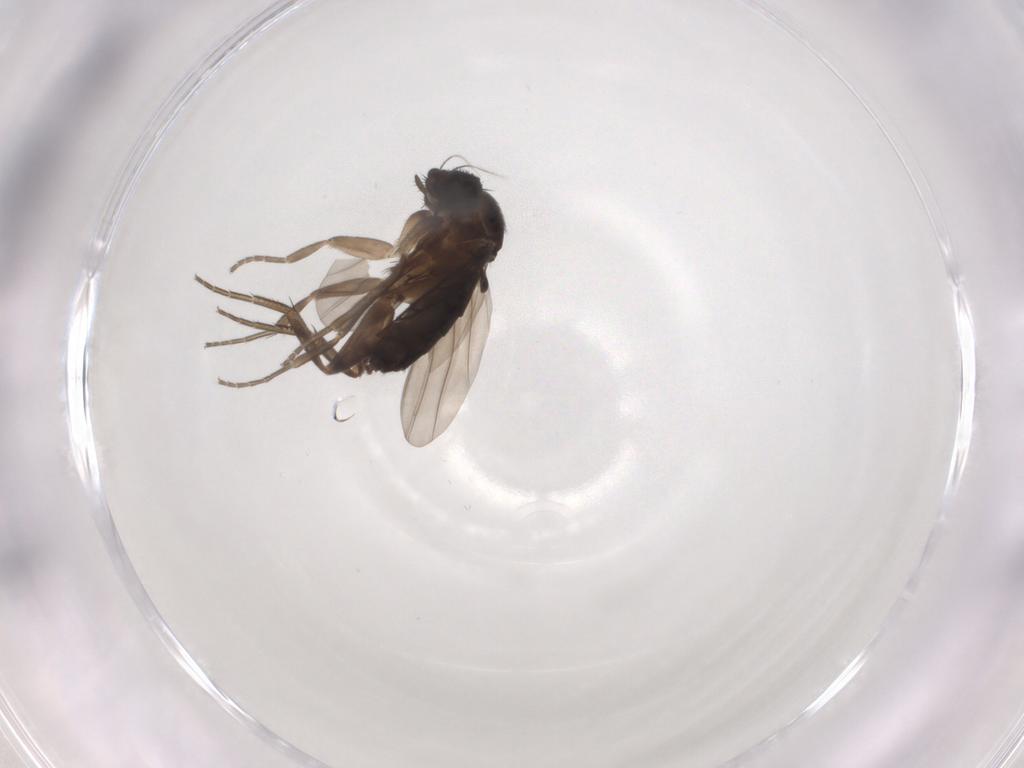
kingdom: Animalia
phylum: Arthropoda
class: Insecta
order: Diptera
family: Phoridae
